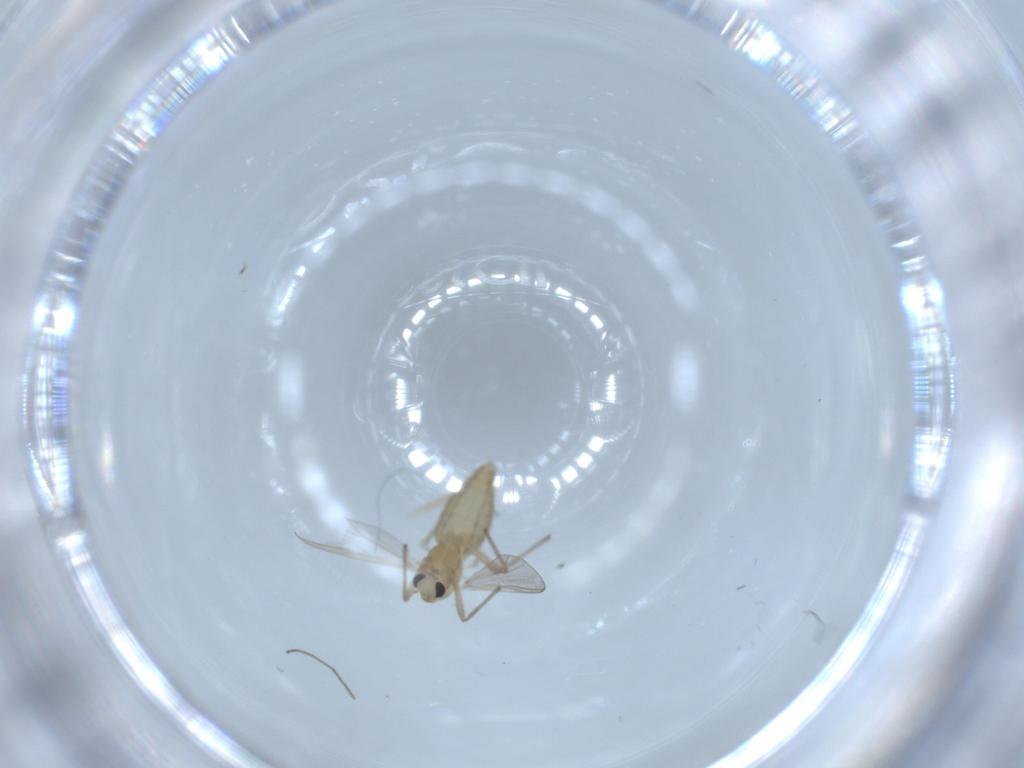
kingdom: Animalia
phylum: Arthropoda
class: Insecta
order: Diptera
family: Chironomidae
